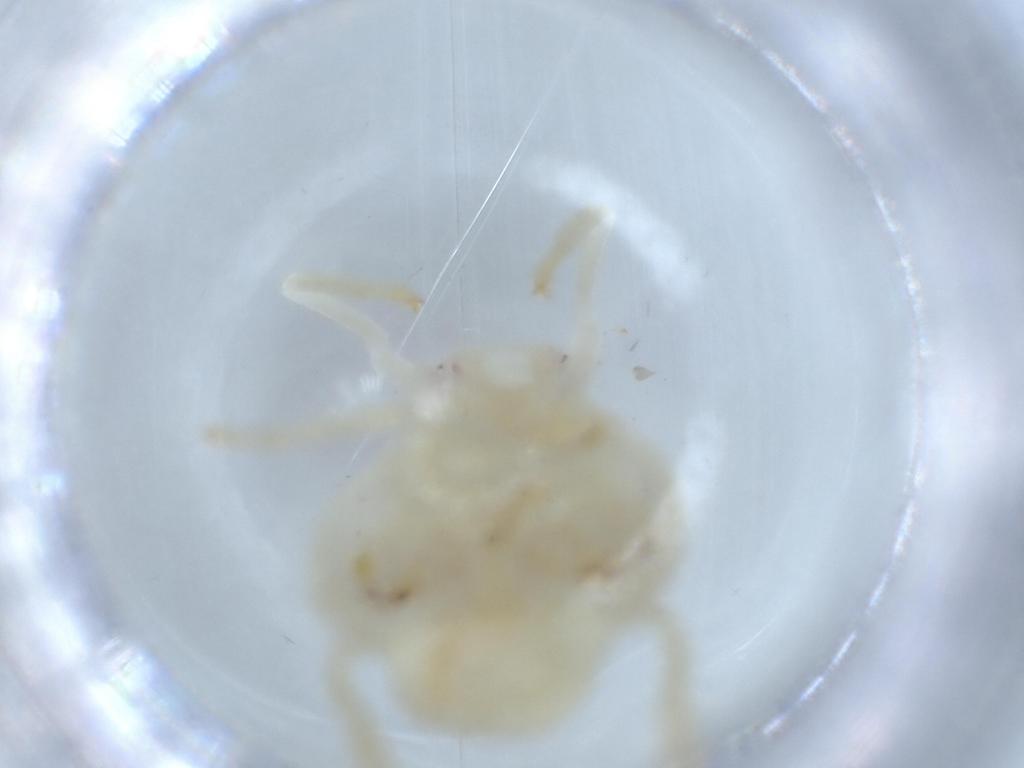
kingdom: Animalia
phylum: Arthropoda
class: Insecta
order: Hemiptera
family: Flatidae
